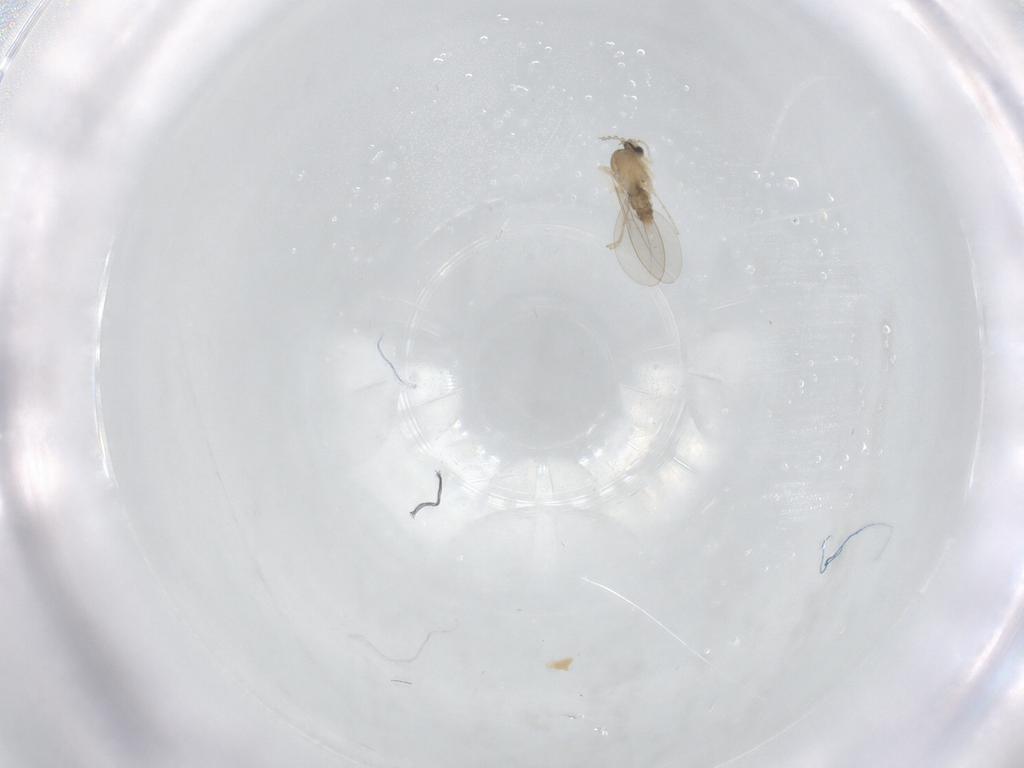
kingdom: Animalia
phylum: Arthropoda
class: Insecta
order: Diptera
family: Cecidomyiidae
